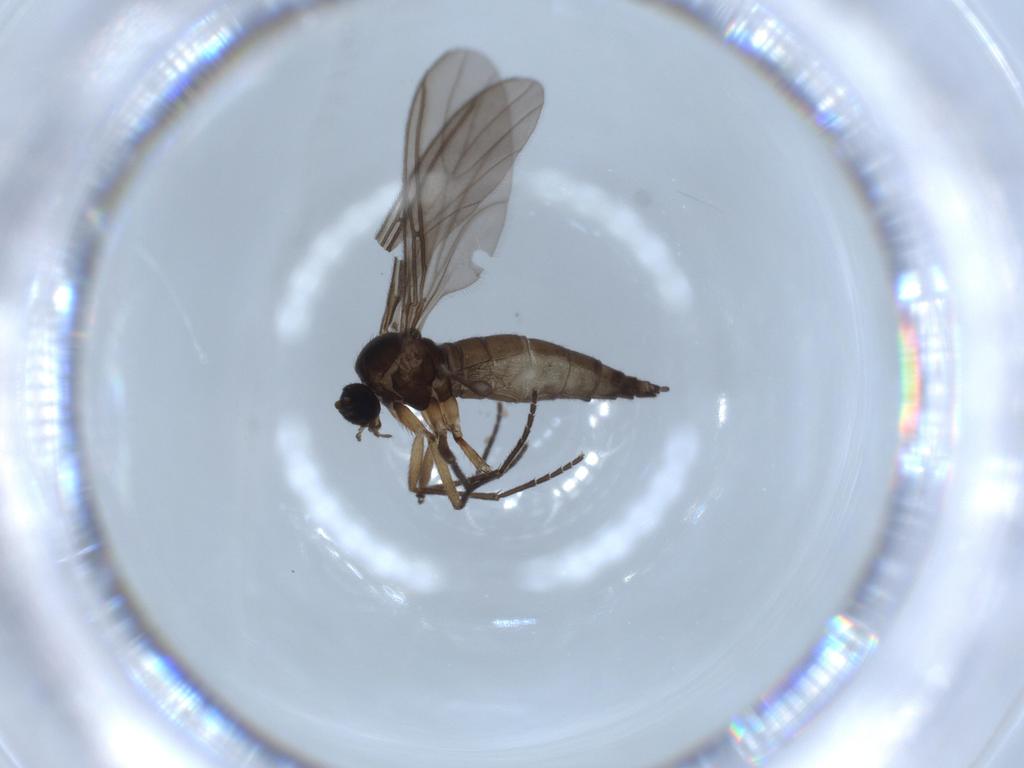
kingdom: Animalia
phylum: Arthropoda
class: Insecta
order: Diptera
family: Sciaridae
